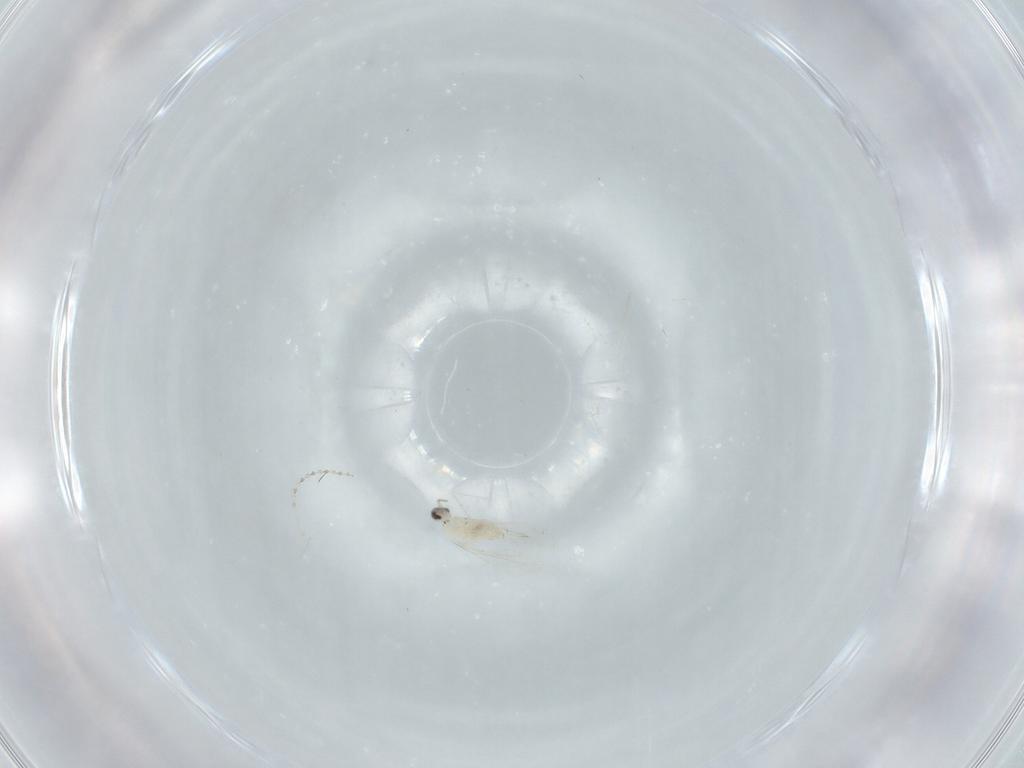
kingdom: Animalia
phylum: Arthropoda
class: Insecta
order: Diptera
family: Cecidomyiidae
